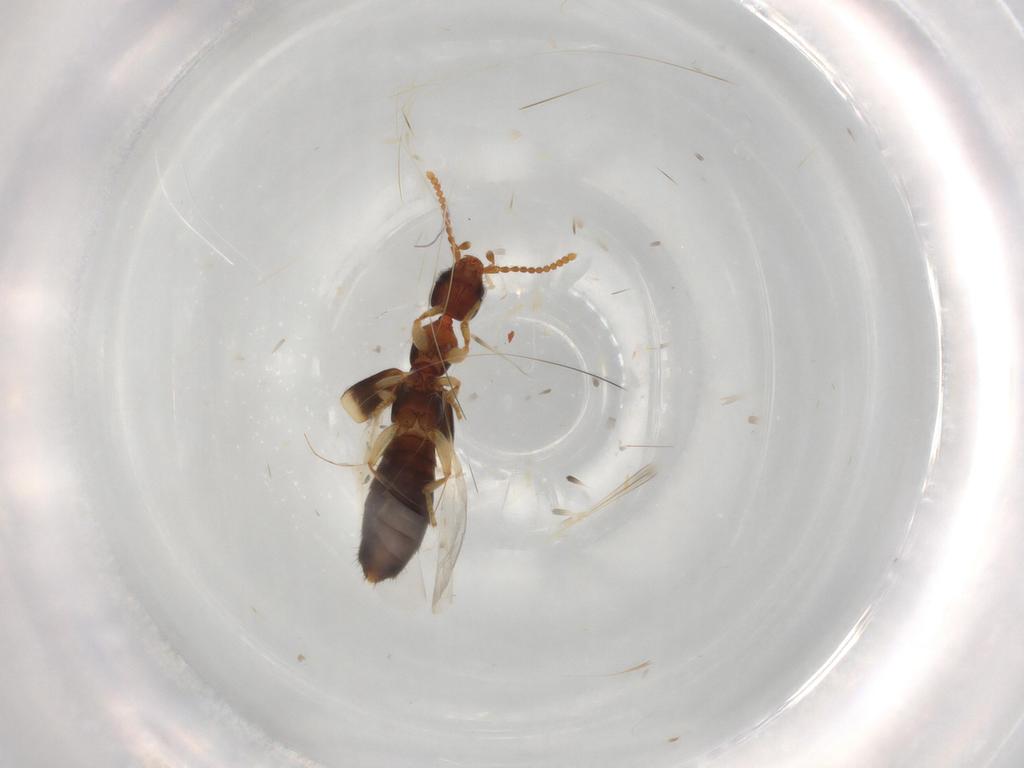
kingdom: Animalia
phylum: Arthropoda
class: Insecta
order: Coleoptera
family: Staphylinidae
